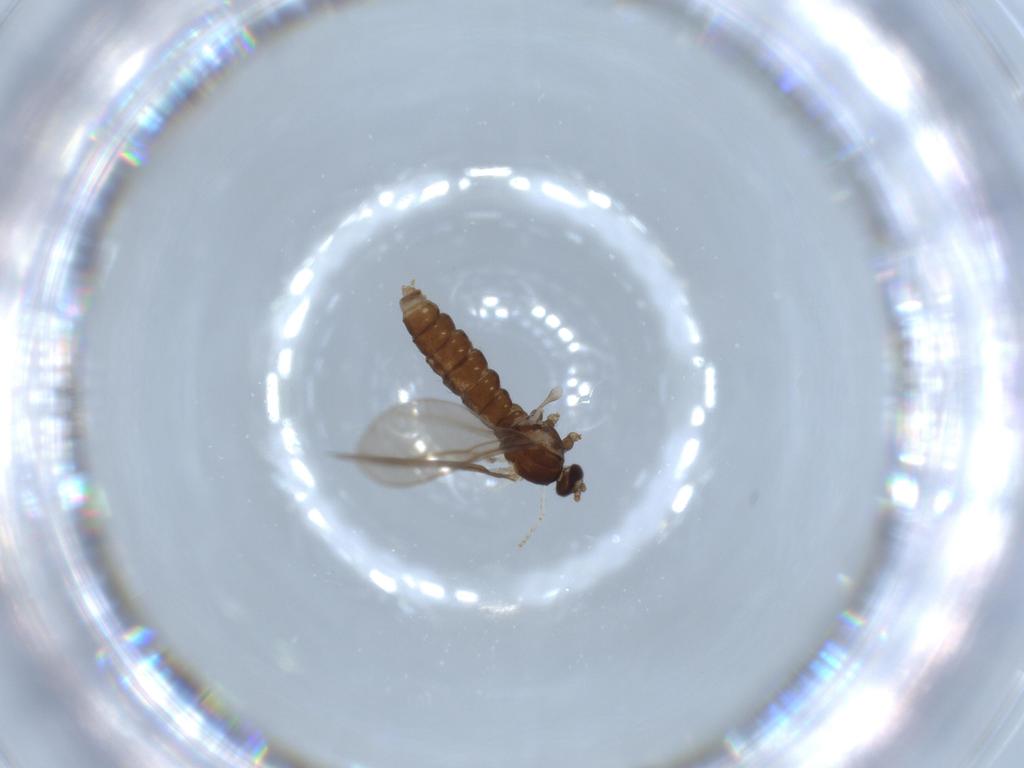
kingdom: Animalia
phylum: Arthropoda
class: Insecta
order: Diptera
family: Cecidomyiidae
